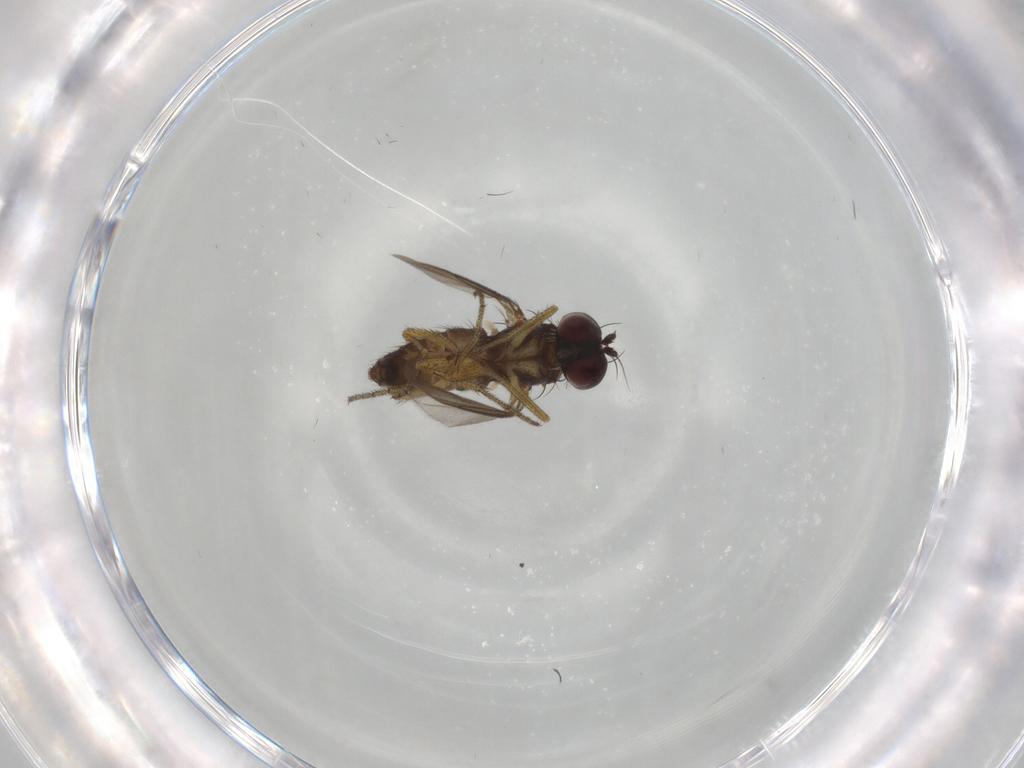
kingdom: Animalia
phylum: Arthropoda
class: Insecta
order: Diptera
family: Dolichopodidae
